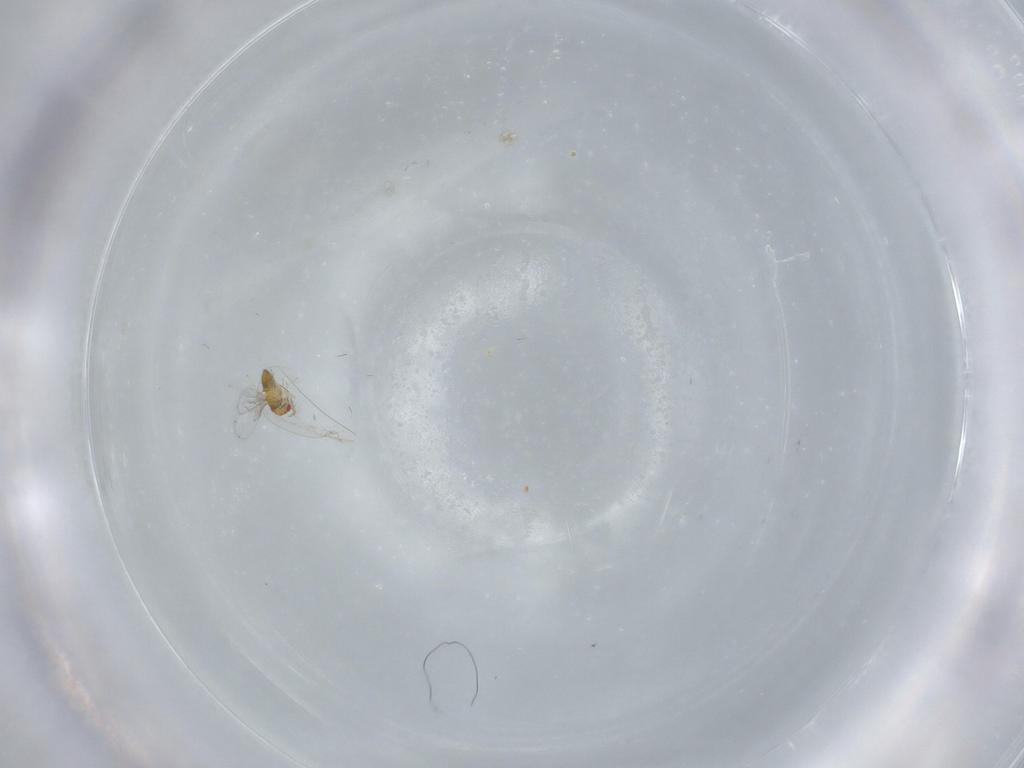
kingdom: Animalia
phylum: Arthropoda
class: Insecta
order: Hymenoptera
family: Trichogrammatidae
